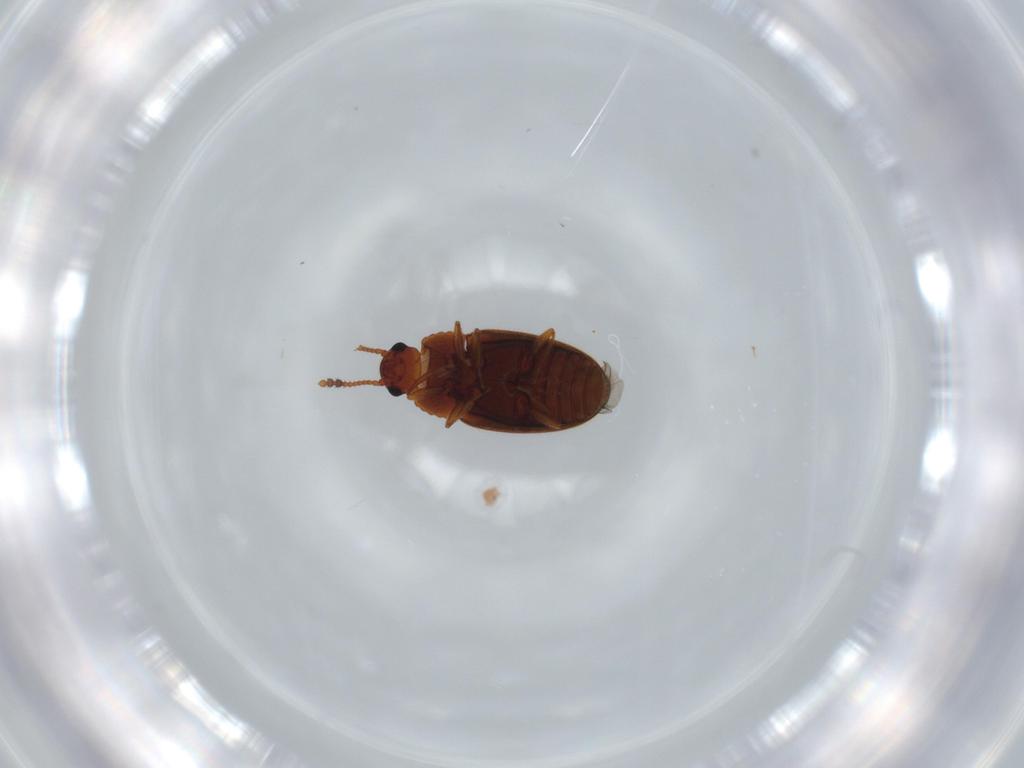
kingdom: Animalia
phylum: Arthropoda
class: Insecta
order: Coleoptera
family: Erotylidae
